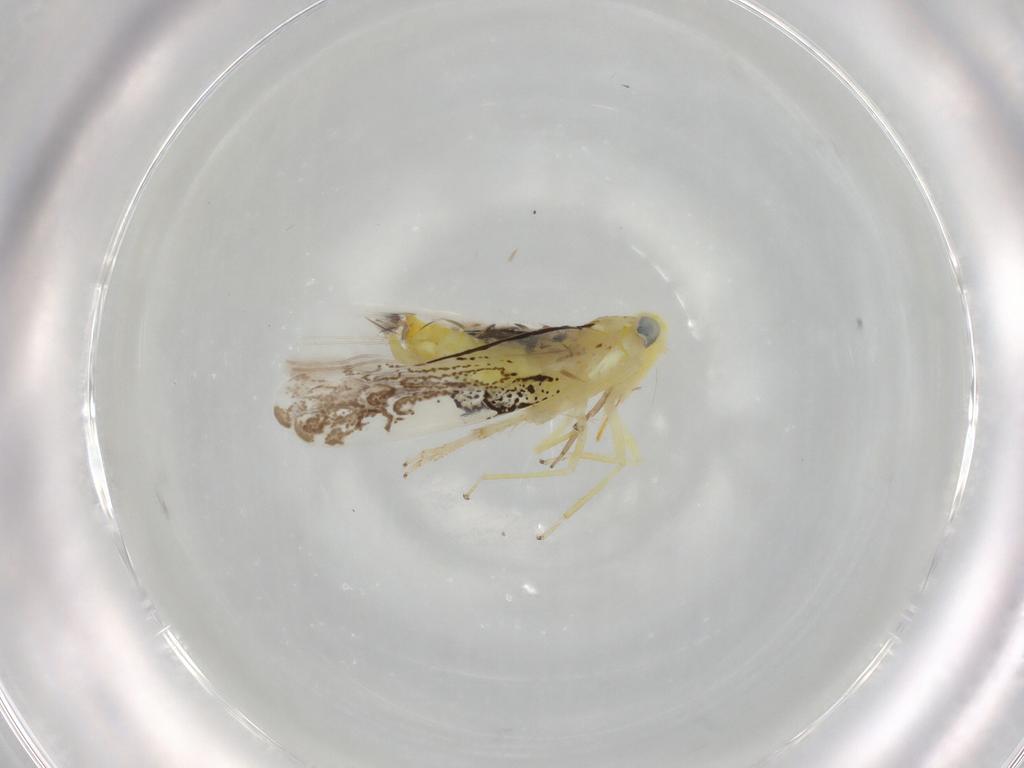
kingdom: Animalia
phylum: Arthropoda
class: Insecta
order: Hemiptera
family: Cicadellidae
